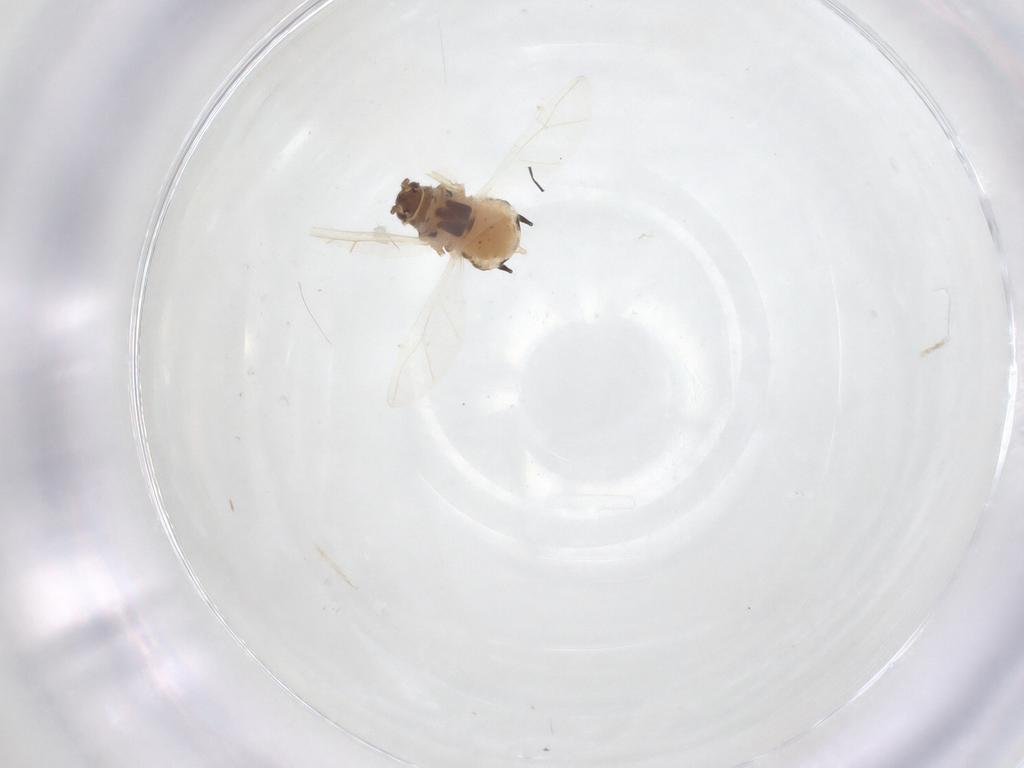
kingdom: Animalia
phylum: Arthropoda
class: Insecta
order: Hemiptera
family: Aphididae
